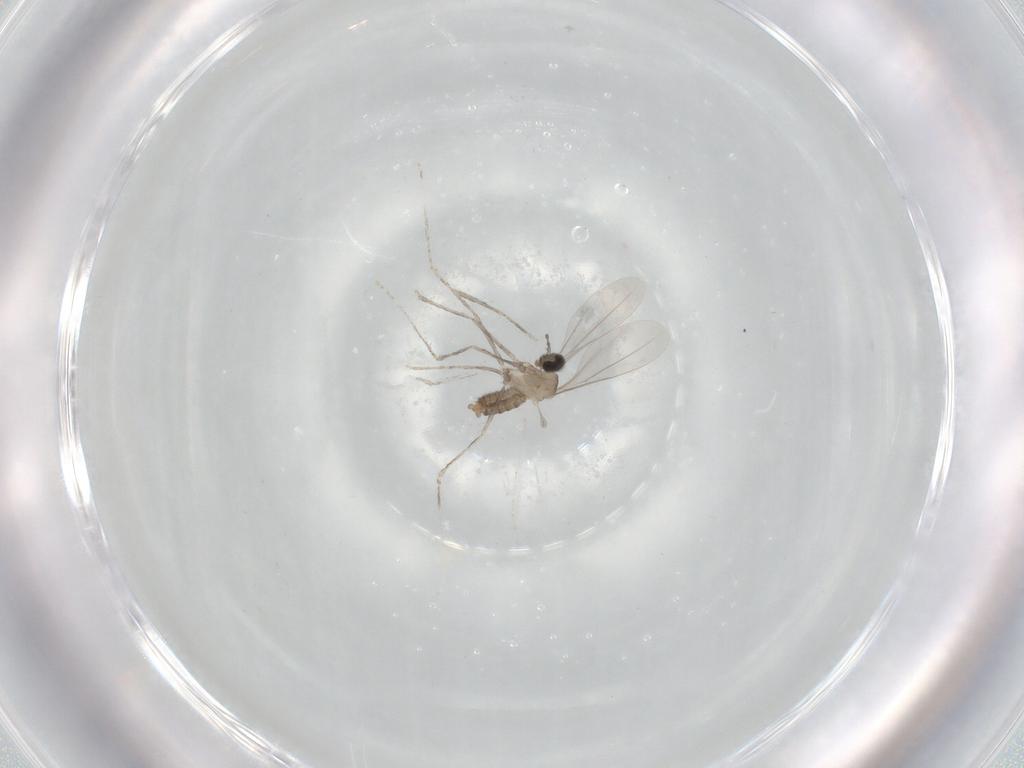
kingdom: Animalia
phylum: Arthropoda
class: Insecta
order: Diptera
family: Cecidomyiidae
